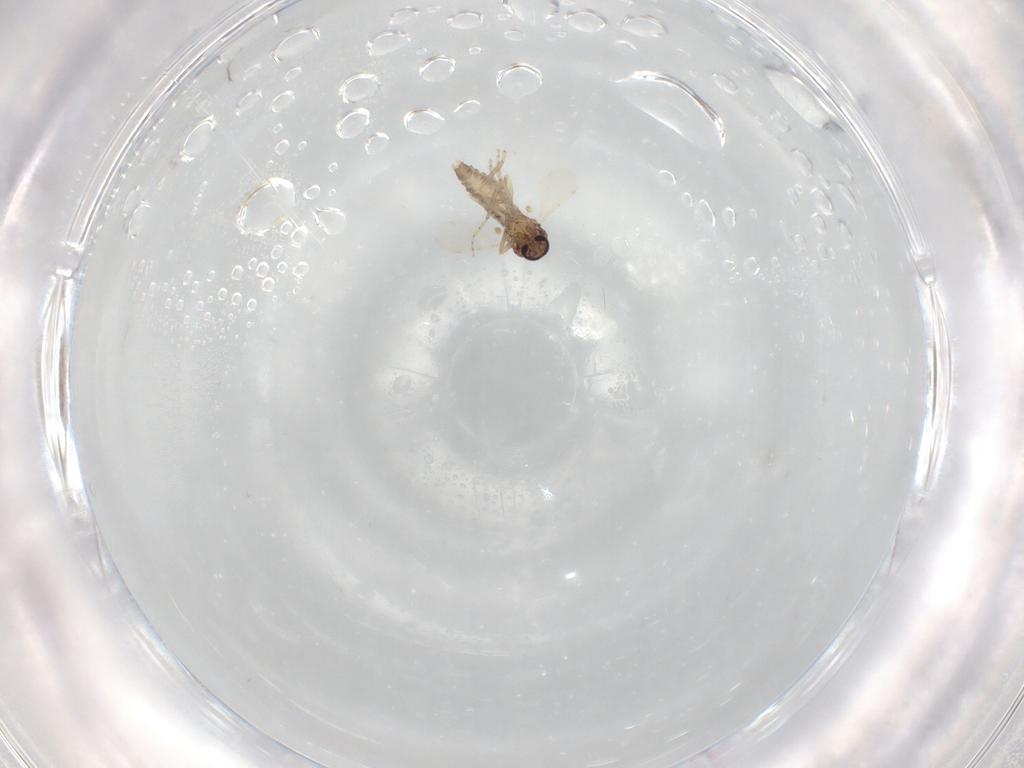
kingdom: Animalia
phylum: Arthropoda
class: Insecta
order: Diptera
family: Ceratopogonidae
